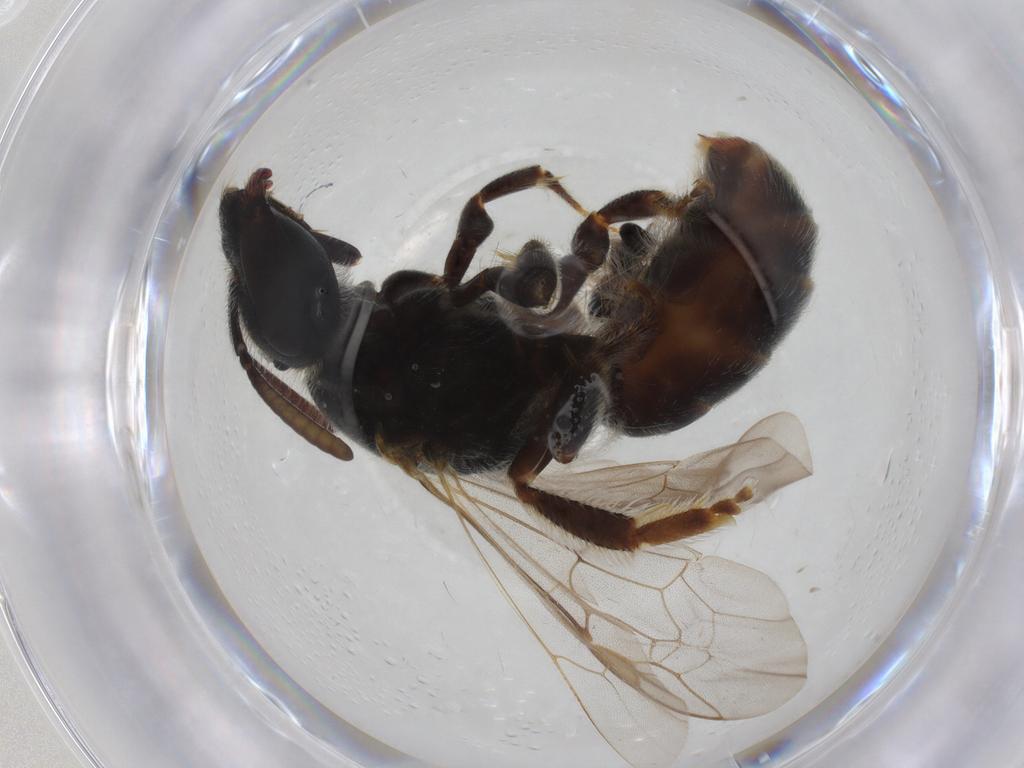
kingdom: Animalia
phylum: Arthropoda
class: Insecta
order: Hymenoptera
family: Scelionidae
